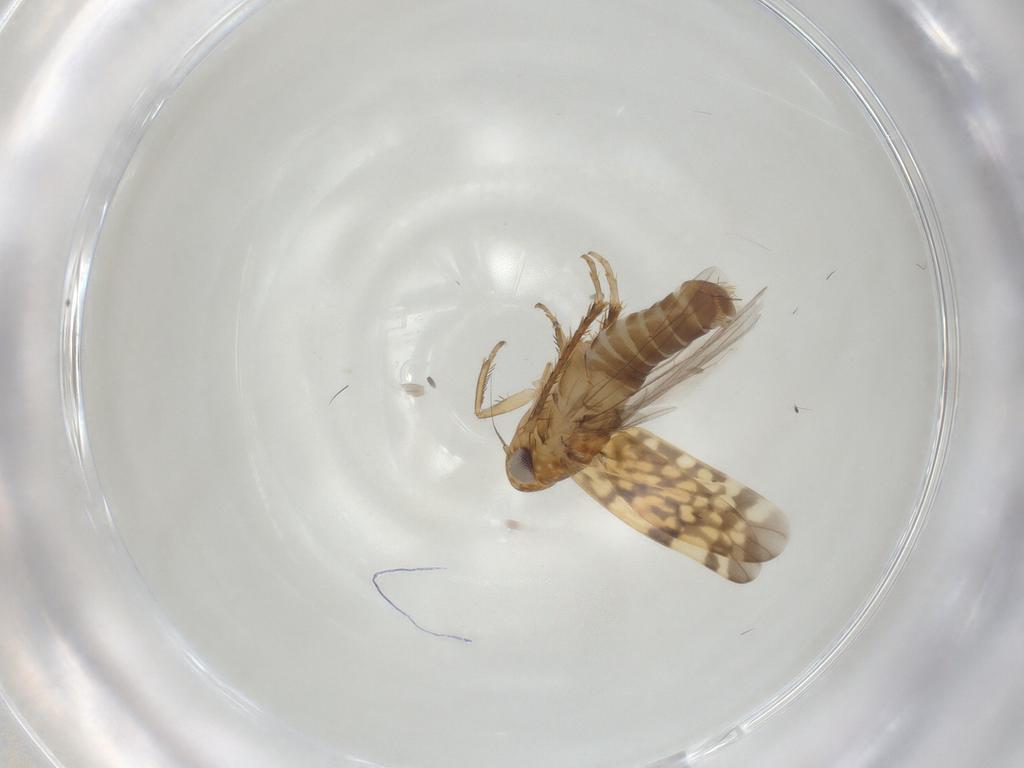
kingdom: Animalia
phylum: Arthropoda
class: Insecta
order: Hemiptera
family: Cicadellidae
